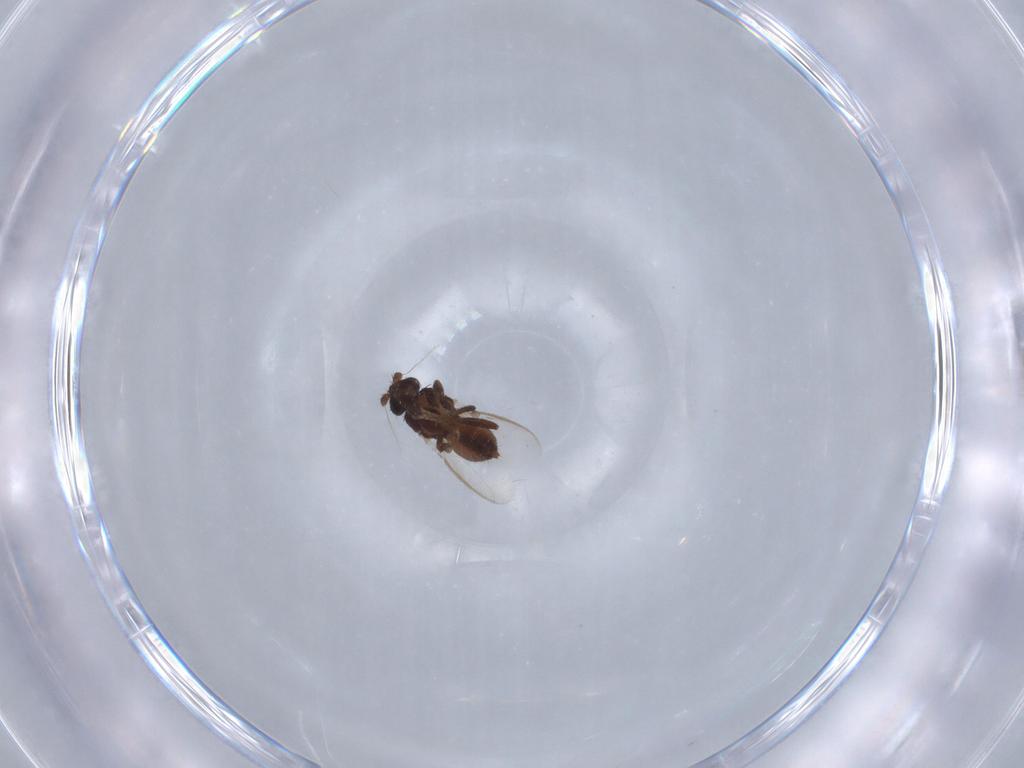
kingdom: Animalia
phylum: Arthropoda
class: Insecta
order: Diptera
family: Sphaeroceridae
